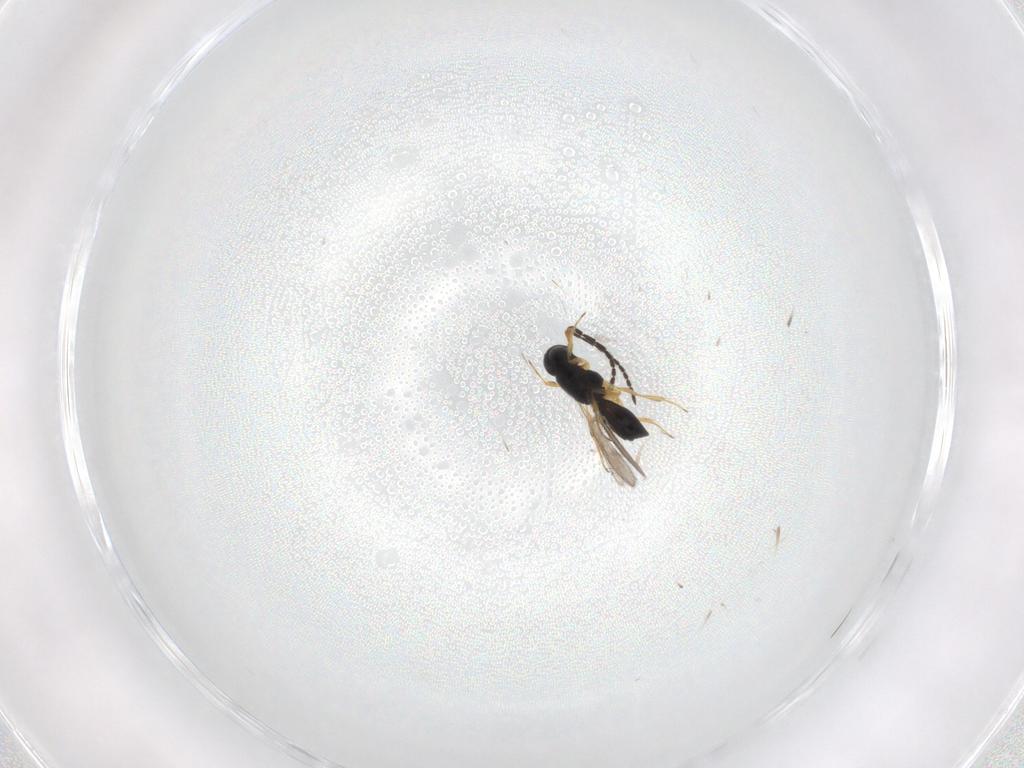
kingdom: Animalia
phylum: Arthropoda
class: Insecta
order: Hymenoptera
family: Scelionidae
